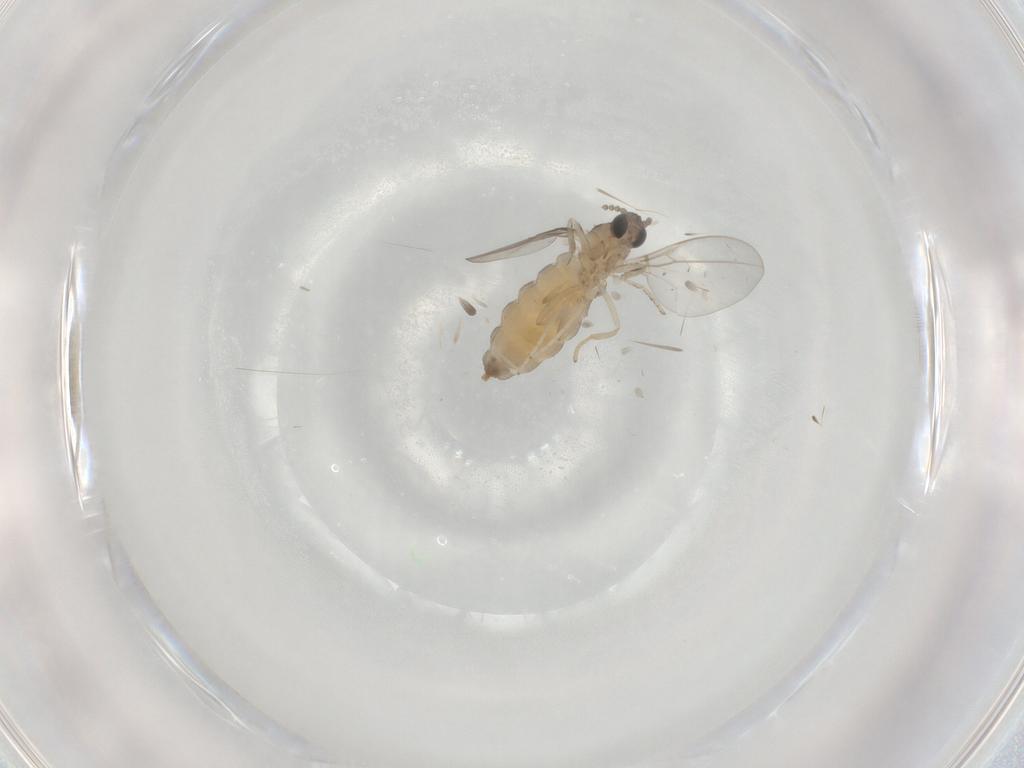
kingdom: Animalia
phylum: Arthropoda
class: Insecta
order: Diptera
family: Cecidomyiidae
